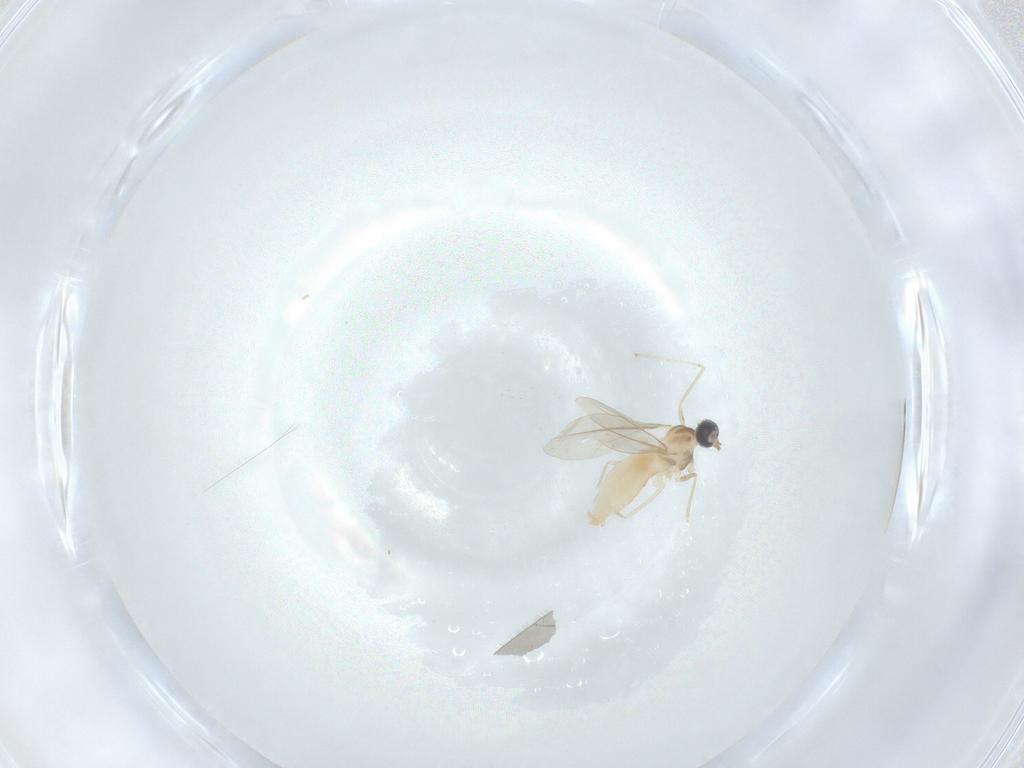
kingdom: Animalia
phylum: Arthropoda
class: Insecta
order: Diptera
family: Cecidomyiidae
